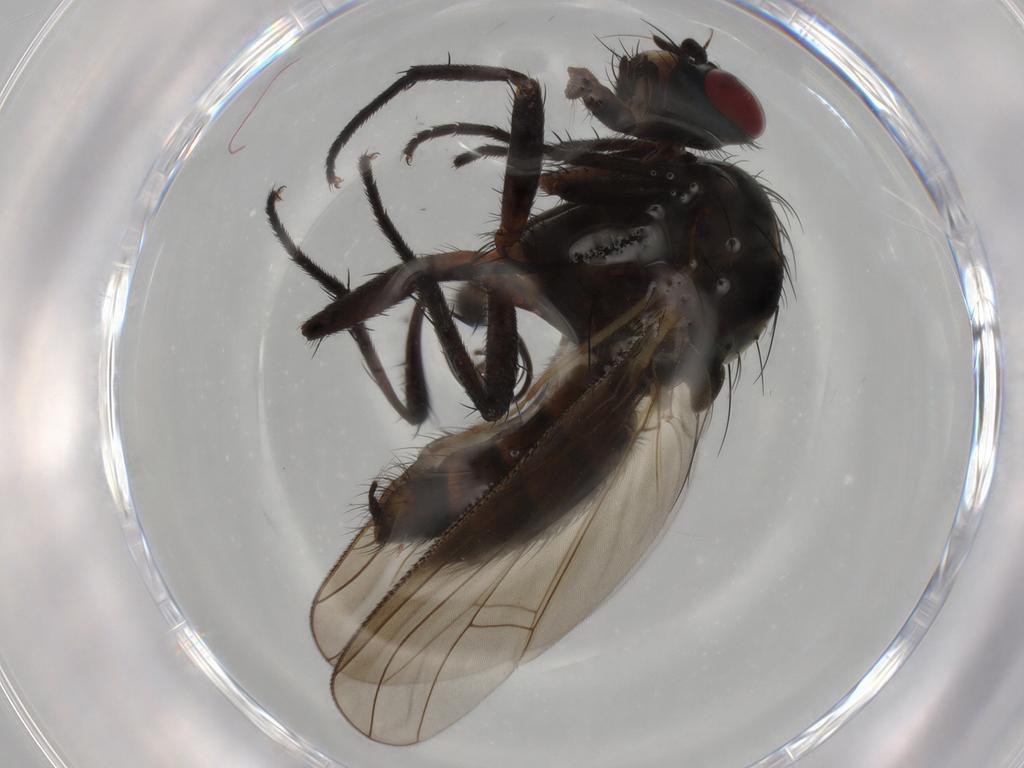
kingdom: Animalia
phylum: Arthropoda
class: Insecta
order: Diptera
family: Anthomyiidae
